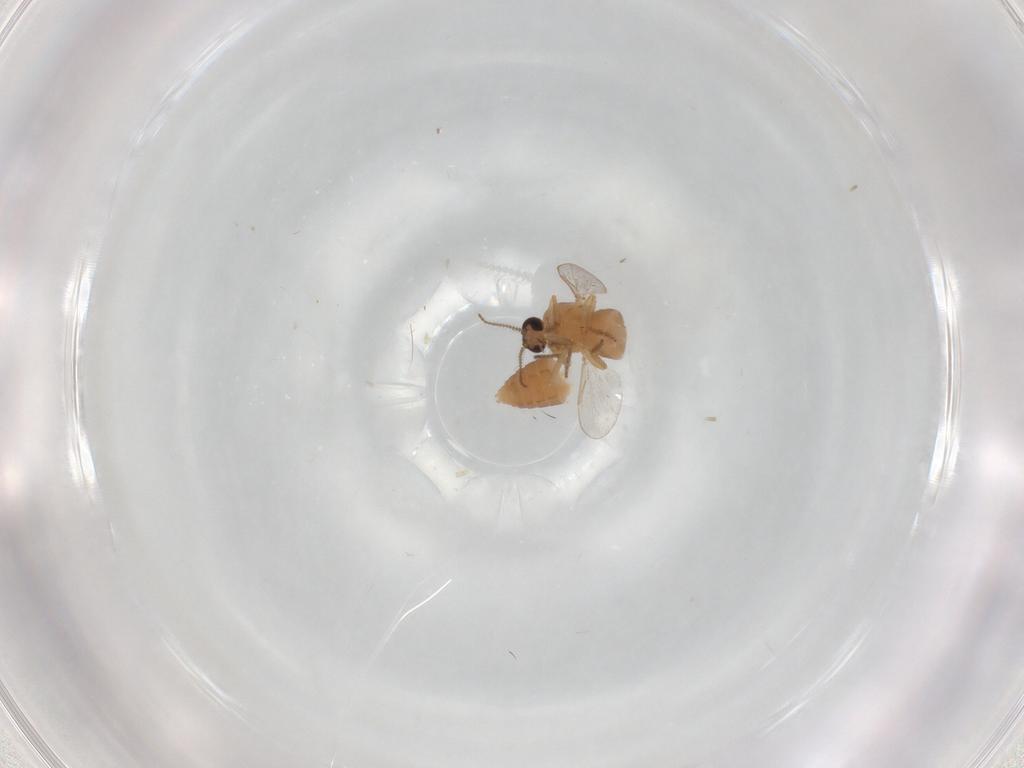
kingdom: Animalia
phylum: Arthropoda
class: Insecta
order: Diptera
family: Ceratopogonidae
